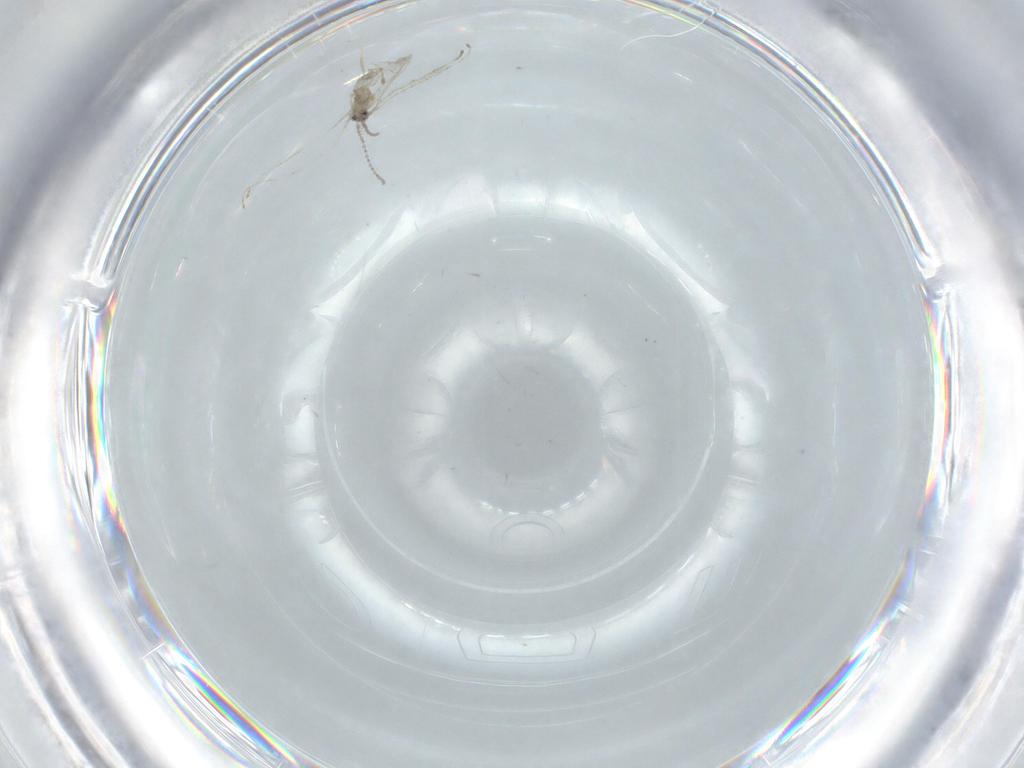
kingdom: Animalia
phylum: Arthropoda
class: Insecta
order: Diptera
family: Cecidomyiidae
